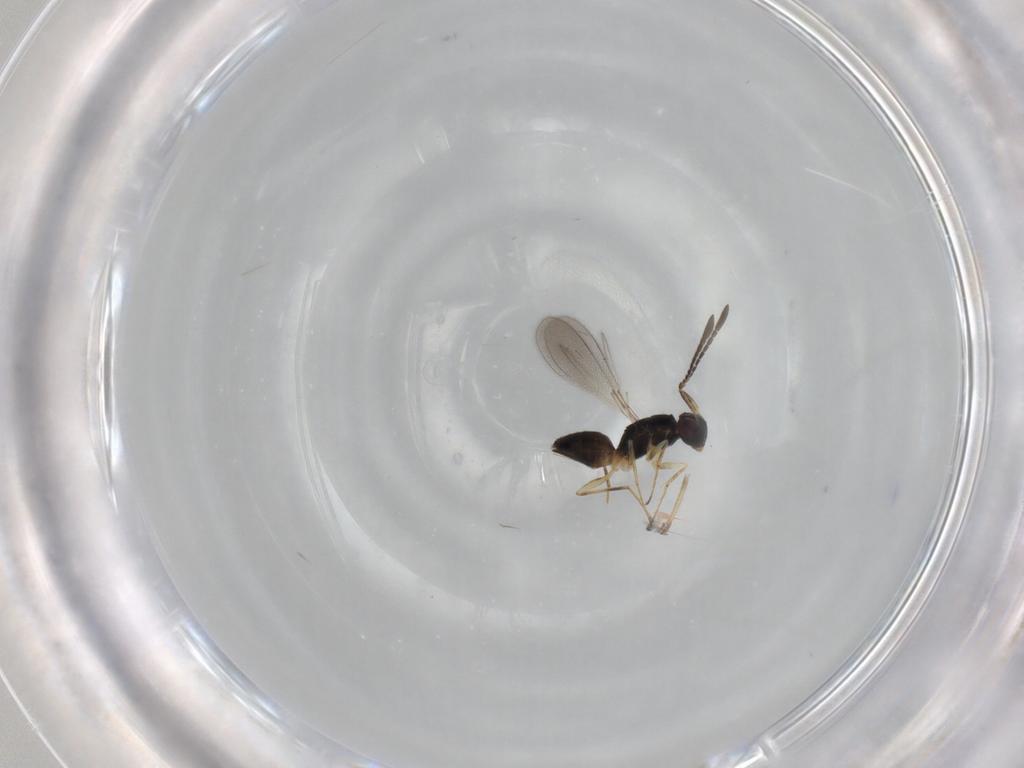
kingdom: Animalia
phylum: Arthropoda
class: Insecta
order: Hymenoptera
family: Mymaridae
